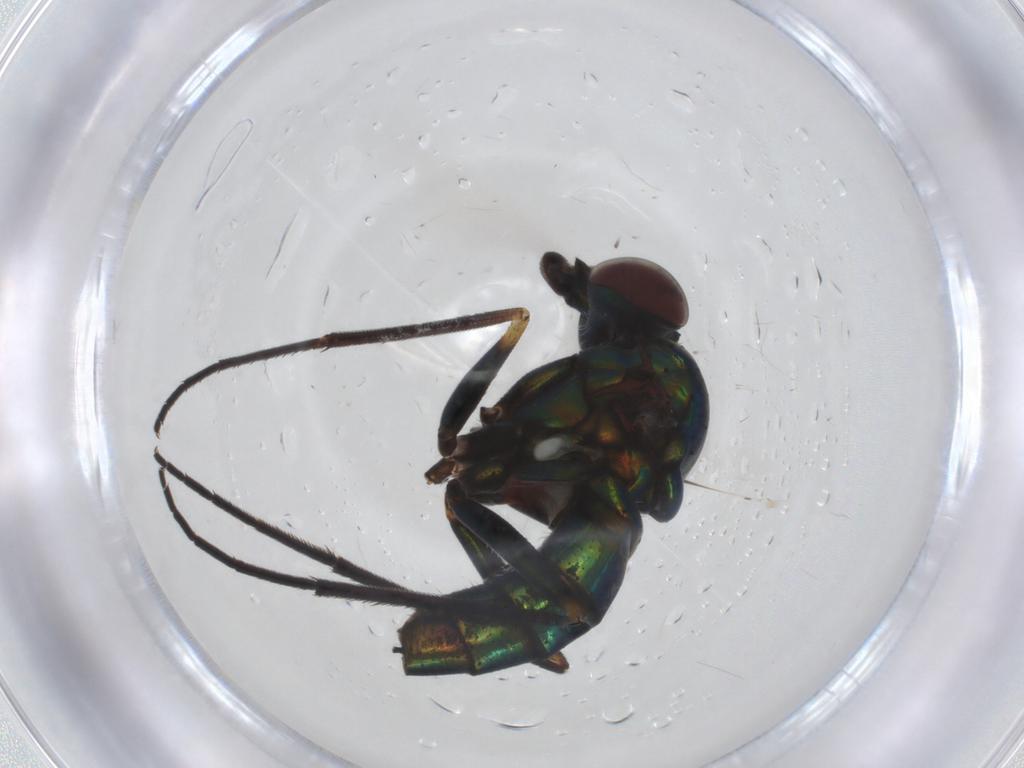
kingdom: Animalia
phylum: Arthropoda
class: Insecta
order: Diptera
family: Dolichopodidae
